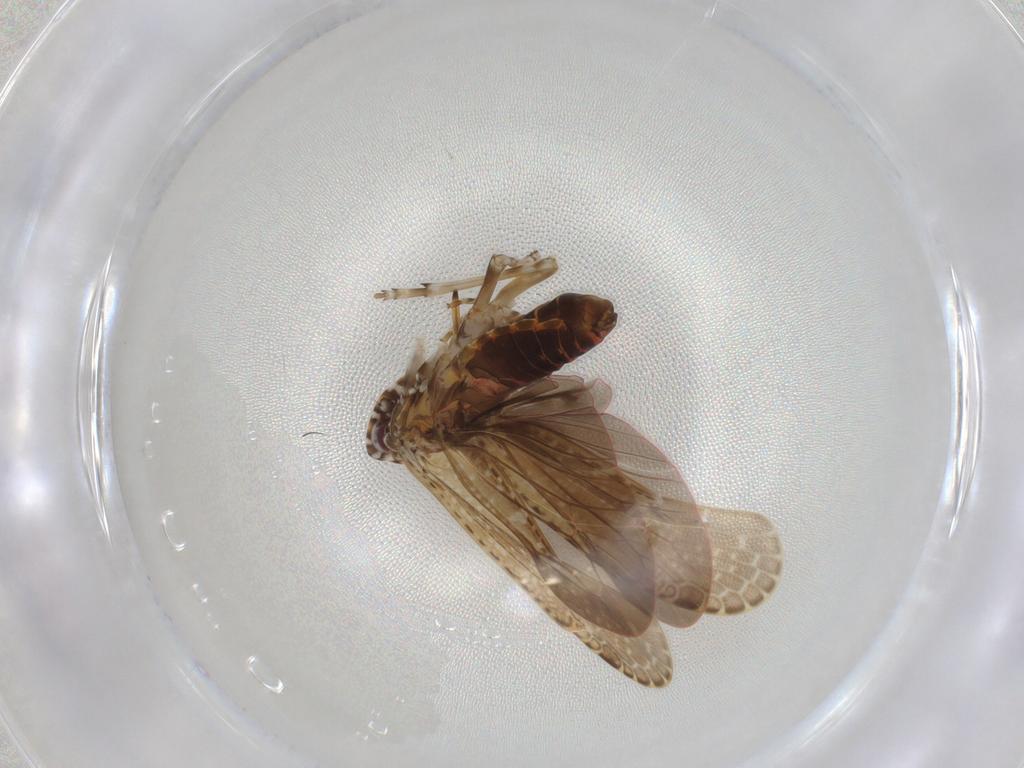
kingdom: Animalia
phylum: Arthropoda
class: Insecta
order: Hemiptera
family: Achilidae
